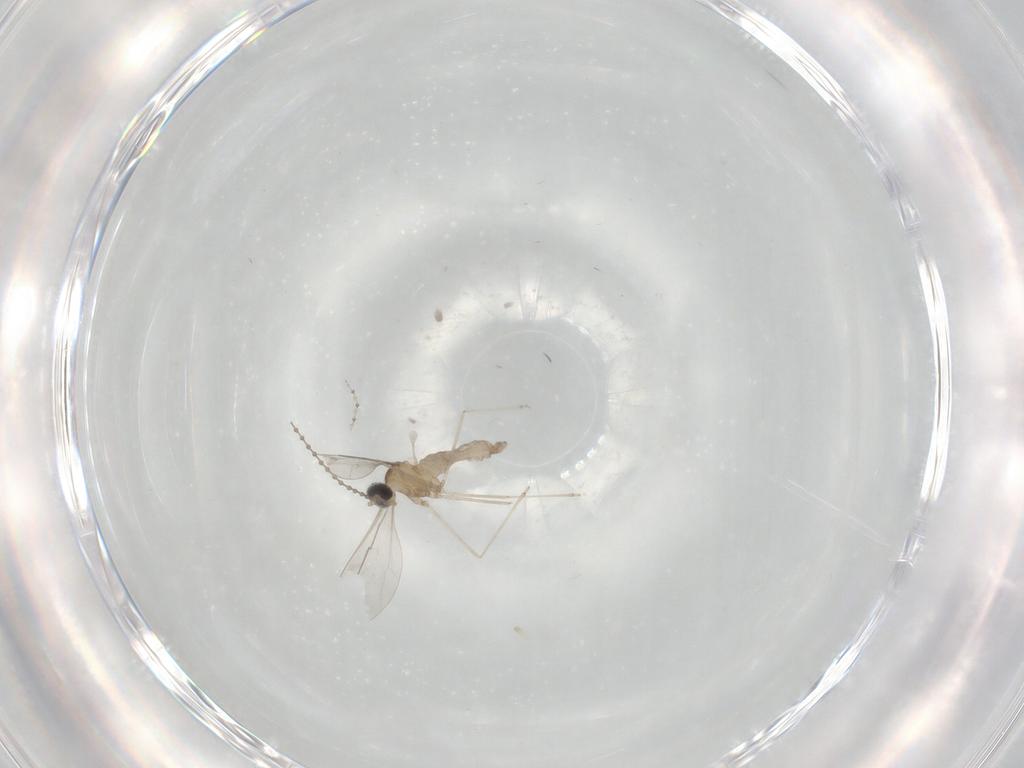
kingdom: Animalia
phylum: Arthropoda
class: Insecta
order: Diptera
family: Cecidomyiidae
